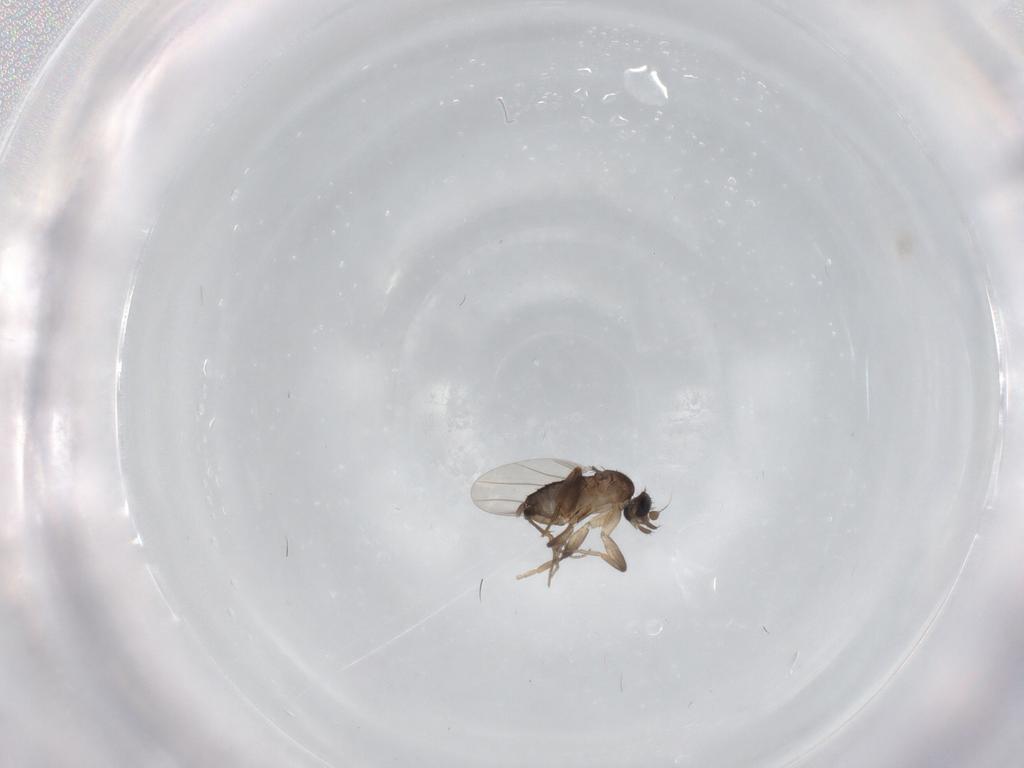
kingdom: Animalia
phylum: Arthropoda
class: Insecta
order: Diptera
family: Phoridae
